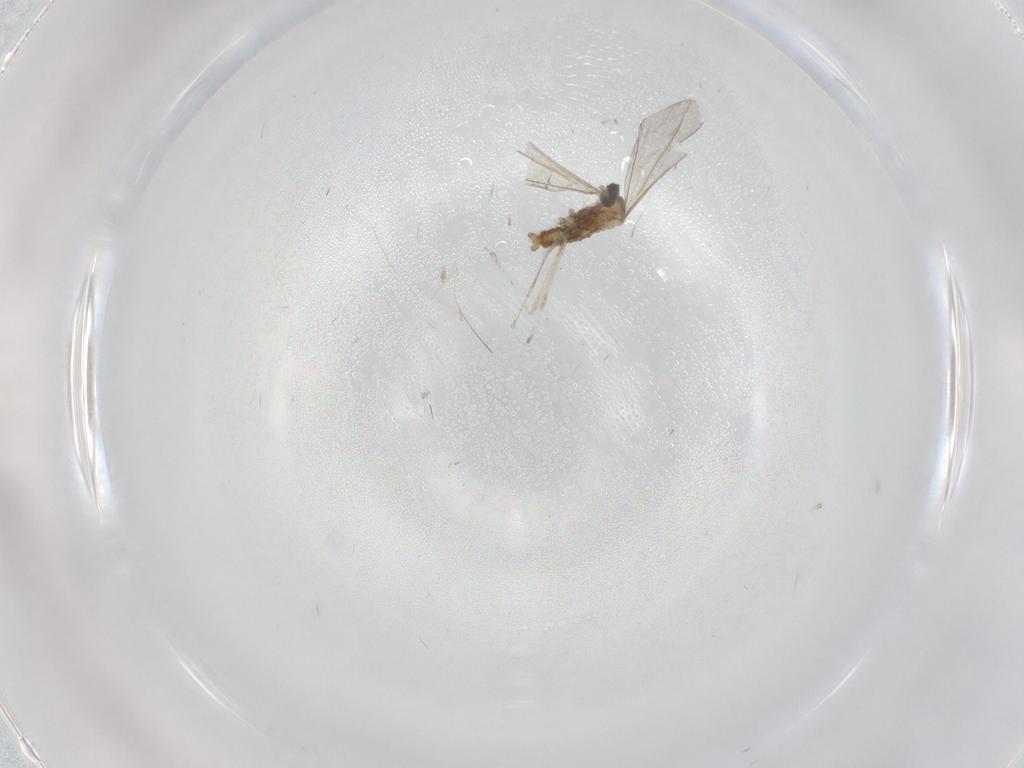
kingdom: Animalia
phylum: Arthropoda
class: Insecta
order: Diptera
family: Cecidomyiidae
